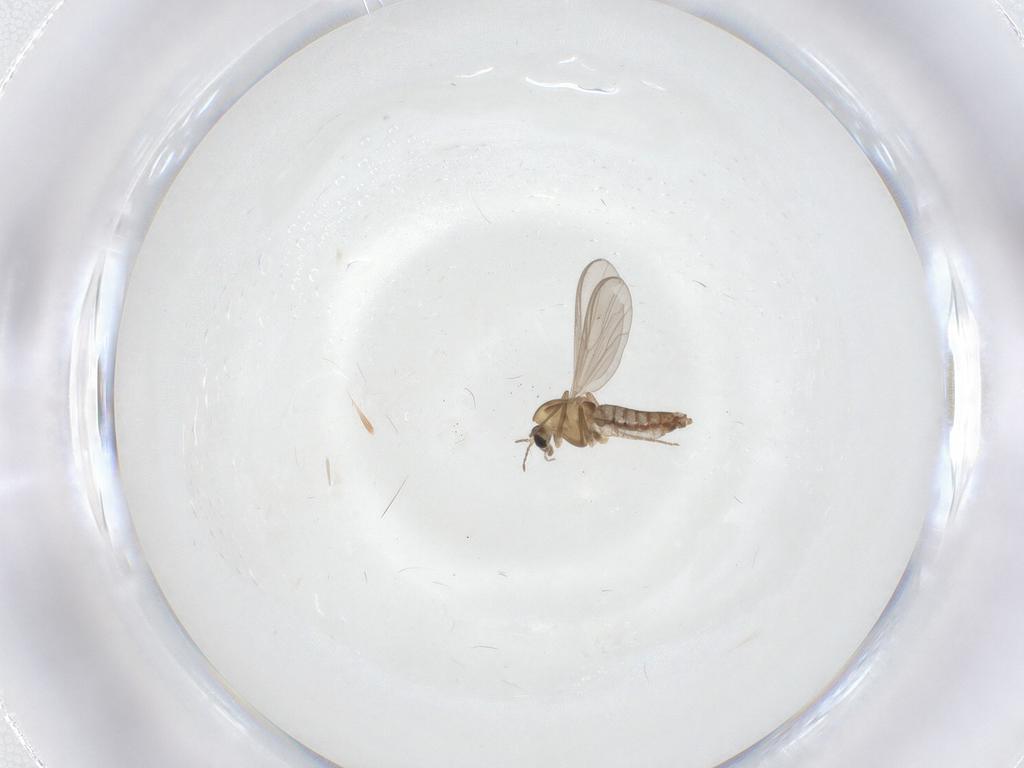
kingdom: Animalia
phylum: Arthropoda
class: Insecta
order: Diptera
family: Chironomidae
